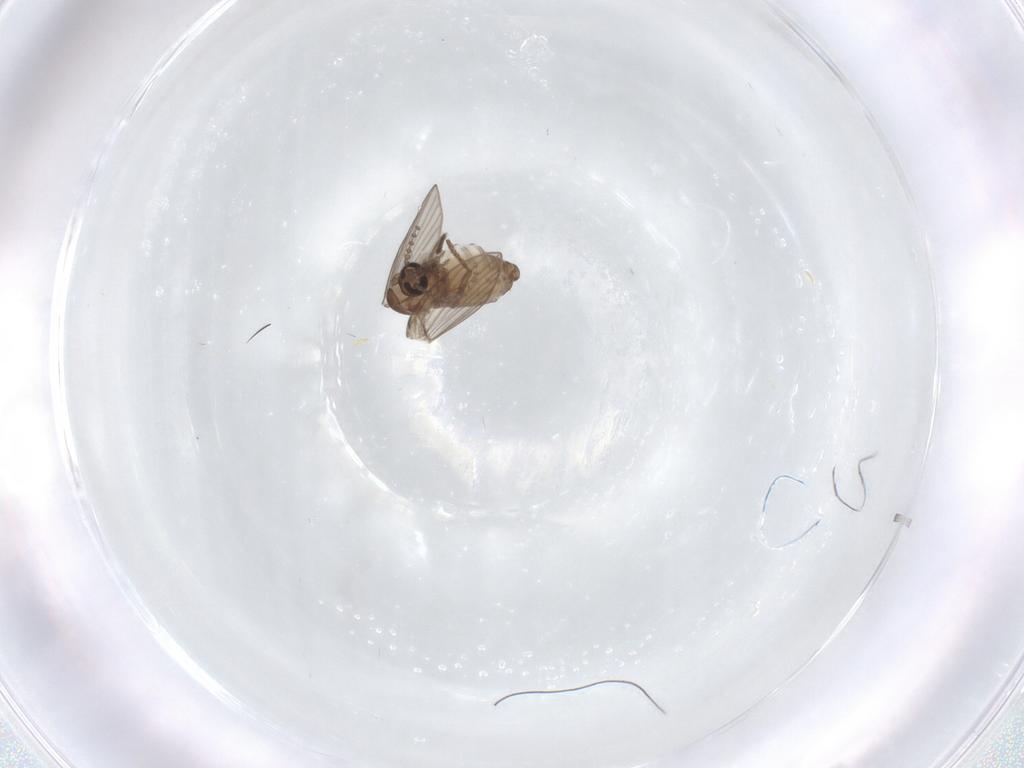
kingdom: Animalia
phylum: Arthropoda
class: Insecta
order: Diptera
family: Psychodidae
